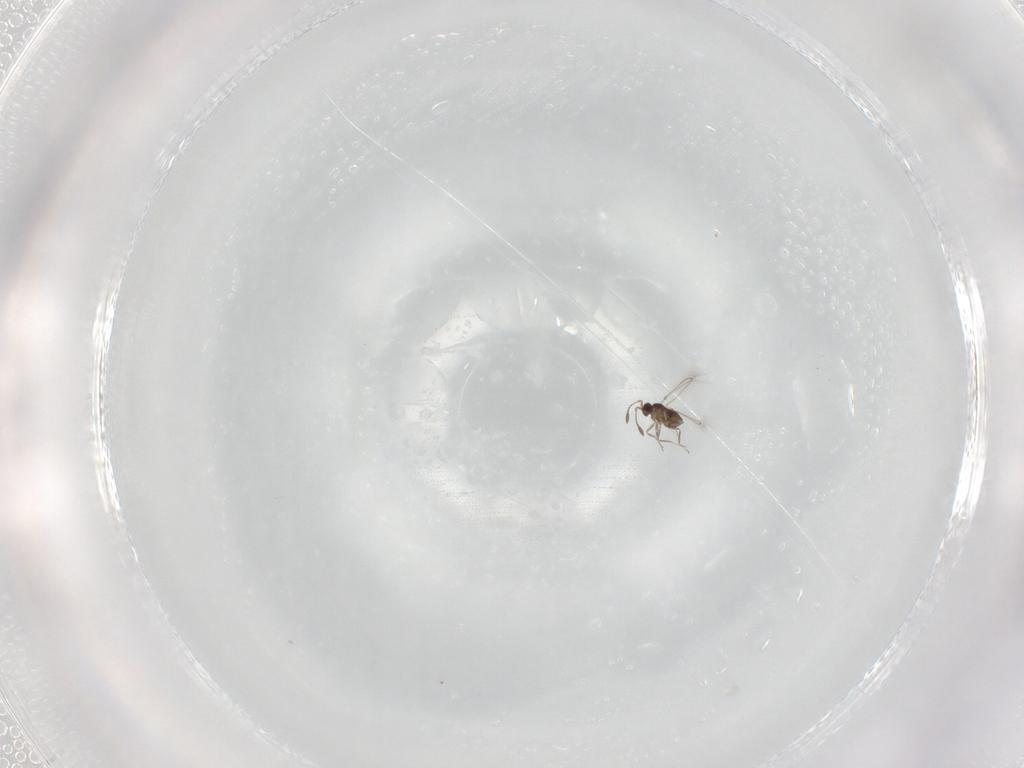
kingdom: Animalia
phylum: Arthropoda
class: Insecta
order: Hymenoptera
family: Mymaridae
